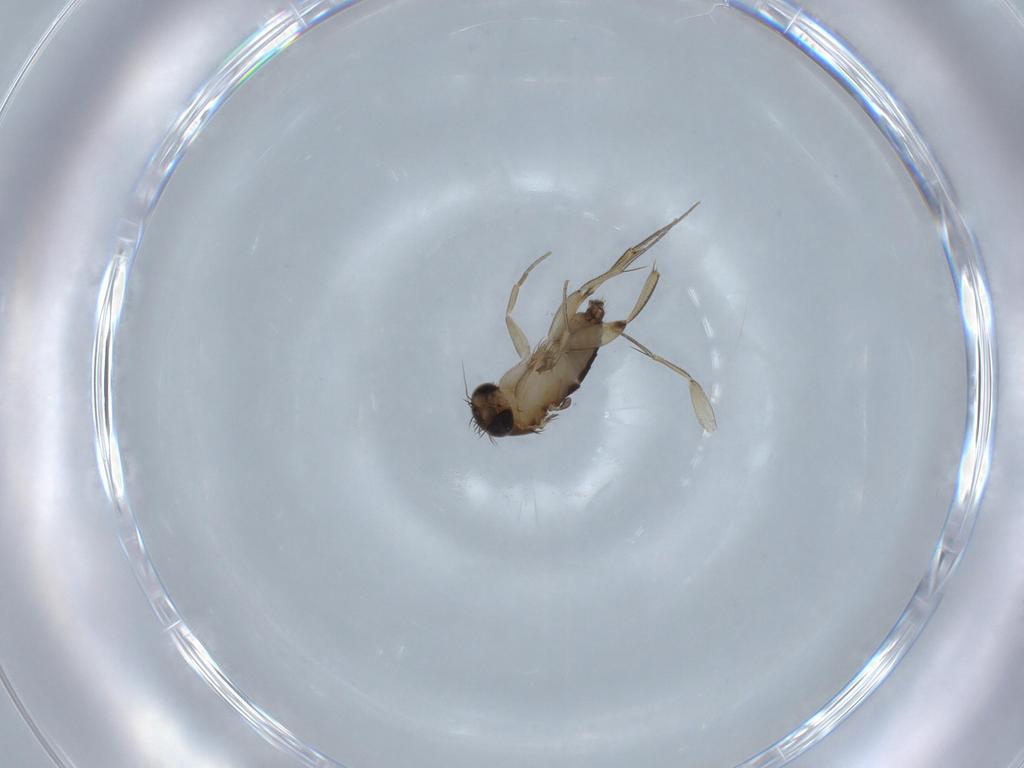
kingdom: Animalia
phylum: Arthropoda
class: Insecta
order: Diptera
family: Phoridae
